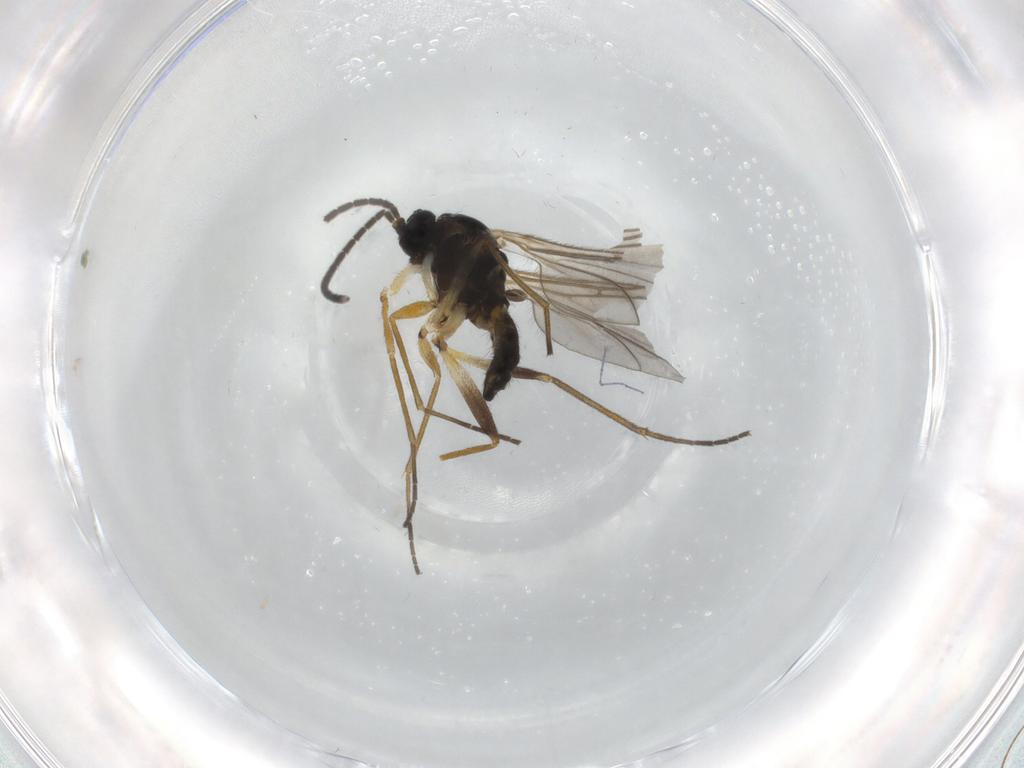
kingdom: Animalia
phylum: Arthropoda
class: Insecta
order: Diptera
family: Sciaridae
